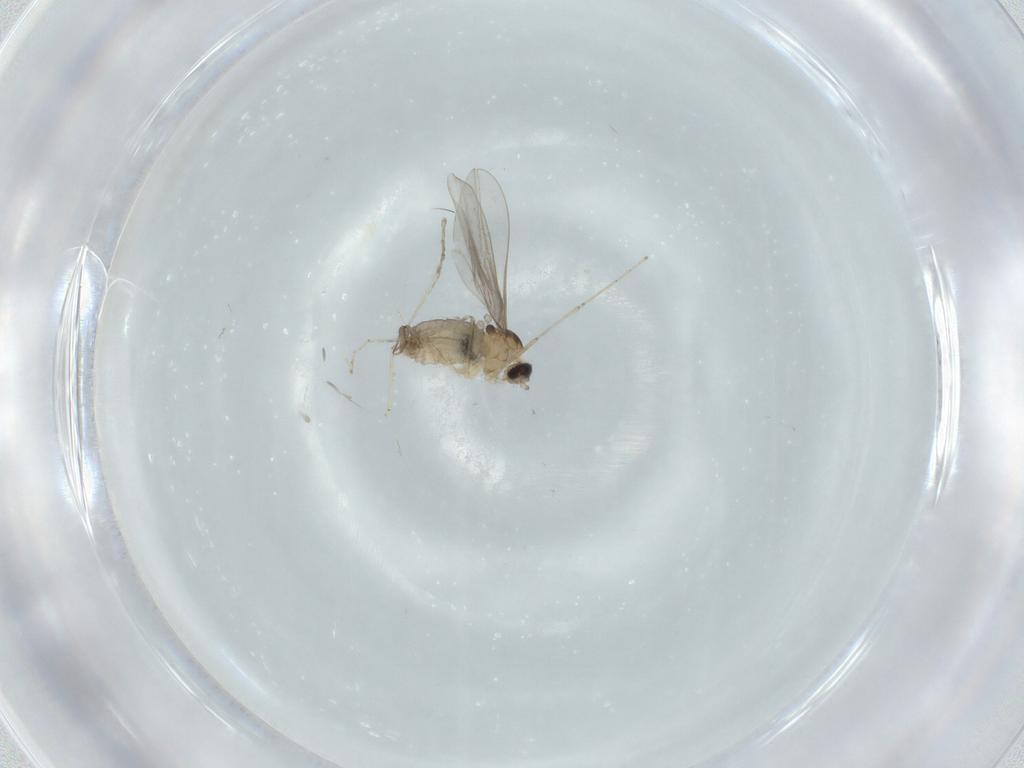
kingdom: Animalia
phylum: Arthropoda
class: Insecta
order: Diptera
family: Cecidomyiidae
